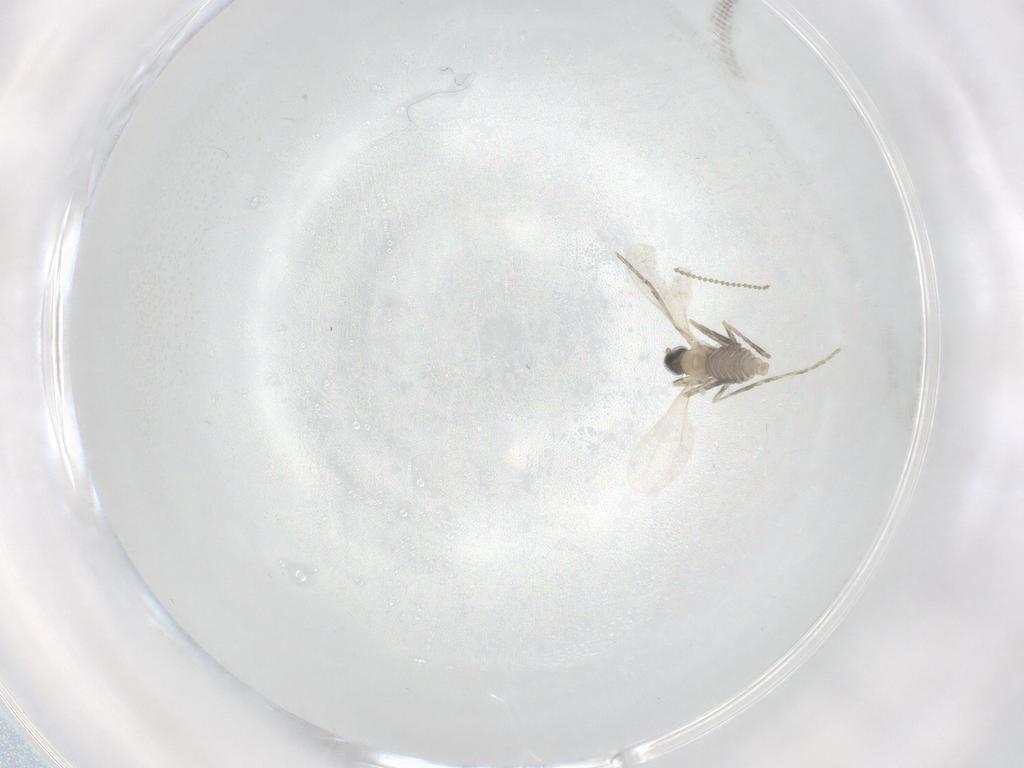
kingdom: Animalia
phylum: Arthropoda
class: Insecta
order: Diptera
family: Cecidomyiidae
